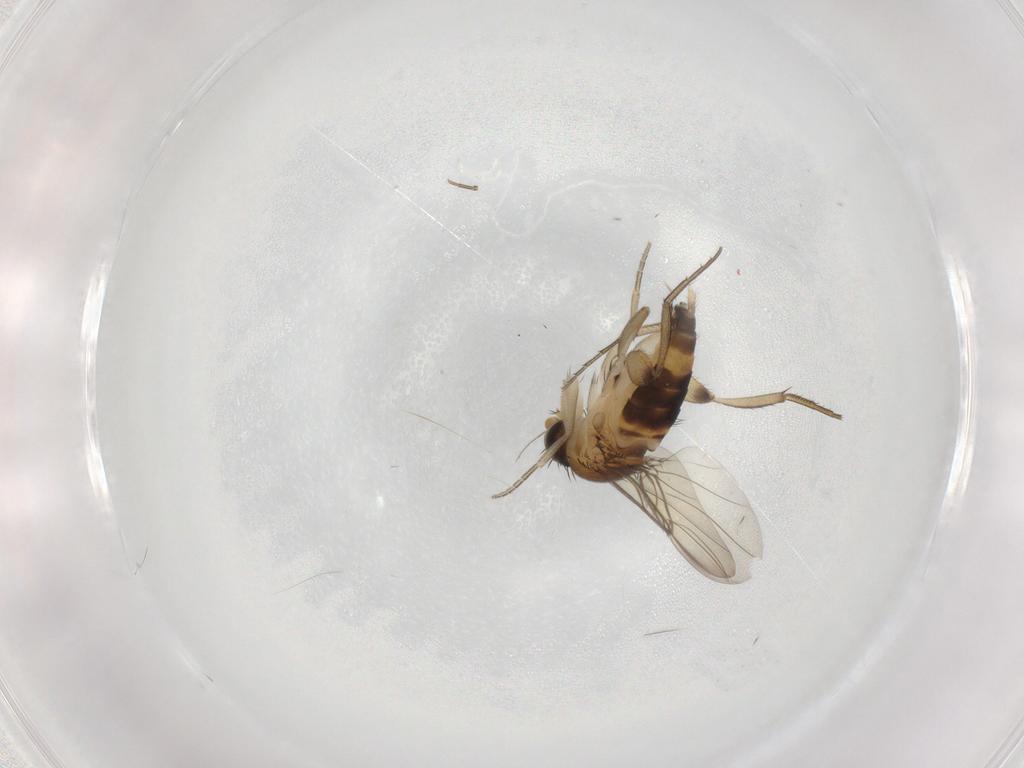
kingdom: Animalia
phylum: Arthropoda
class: Insecta
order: Diptera
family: Phoridae
